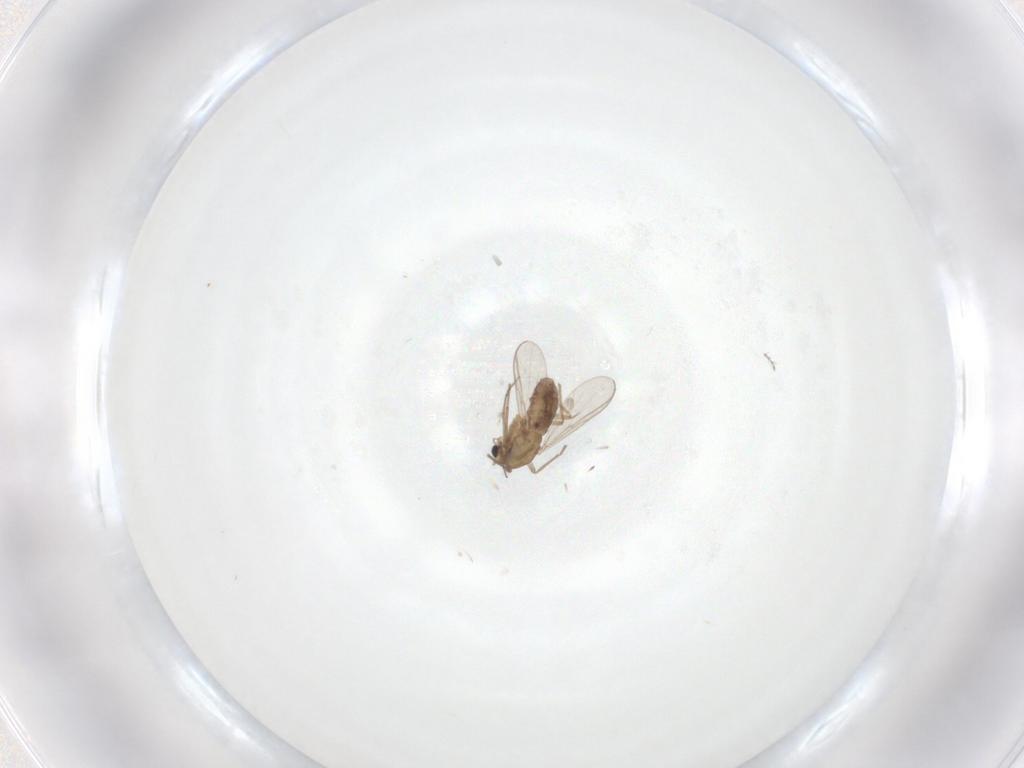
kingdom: Animalia
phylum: Arthropoda
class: Insecta
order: Diptera
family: Chironomidae
